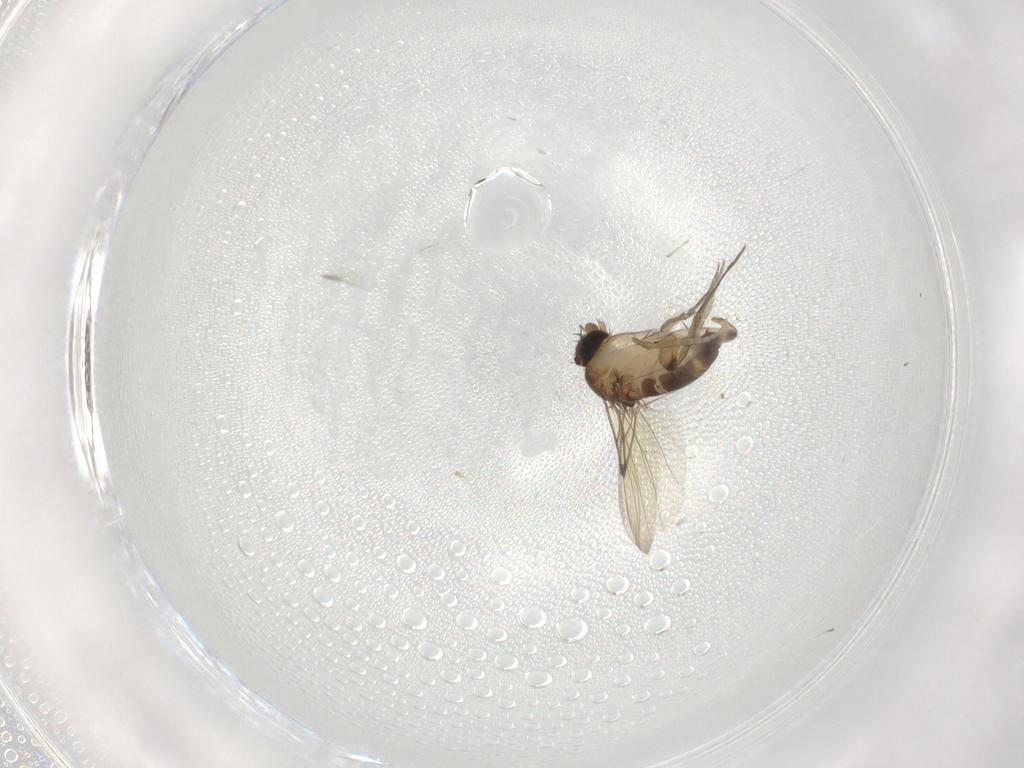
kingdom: Animalia
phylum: Arthropoda
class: Insecta
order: Diptera
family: Phoridae
